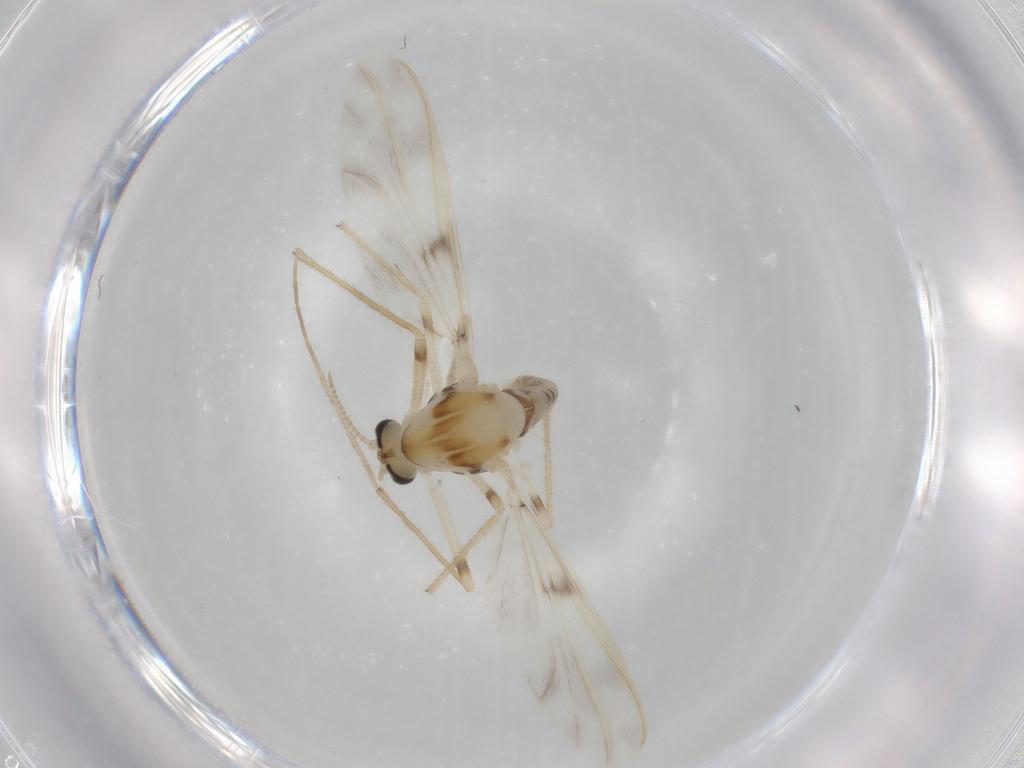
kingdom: Animalia
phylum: Arthropoda
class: Insecta
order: Diptera
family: Chironomidae
